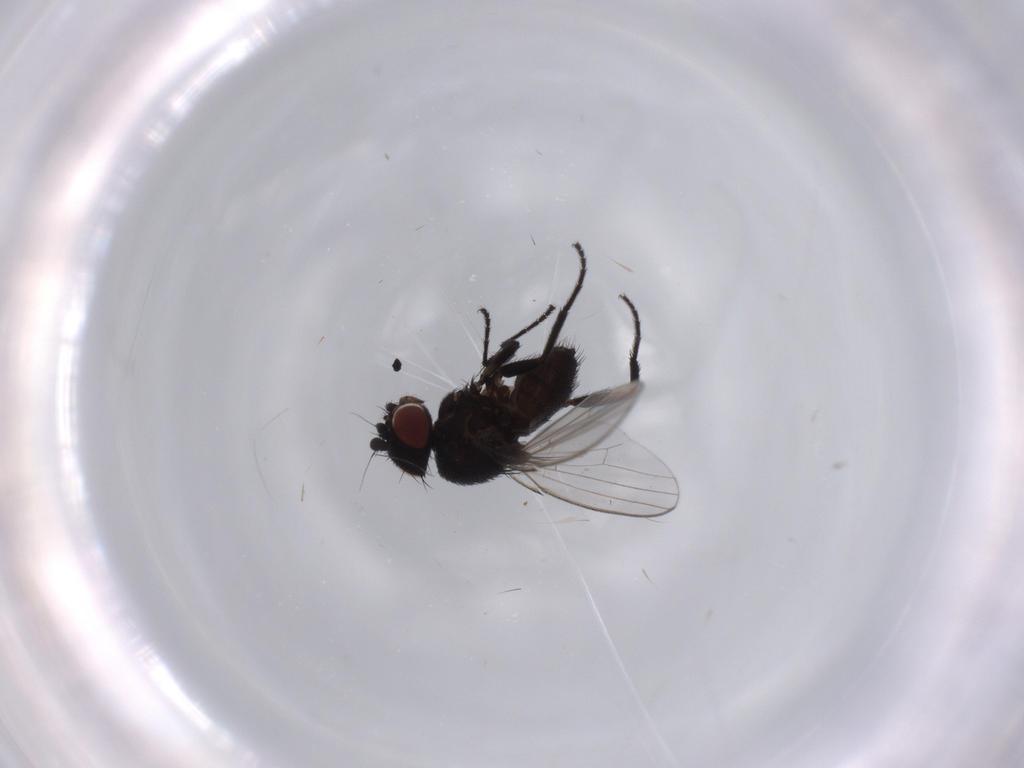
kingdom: Animalia
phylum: Arthropoda
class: Insecta
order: Diptera
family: Milichiidae
